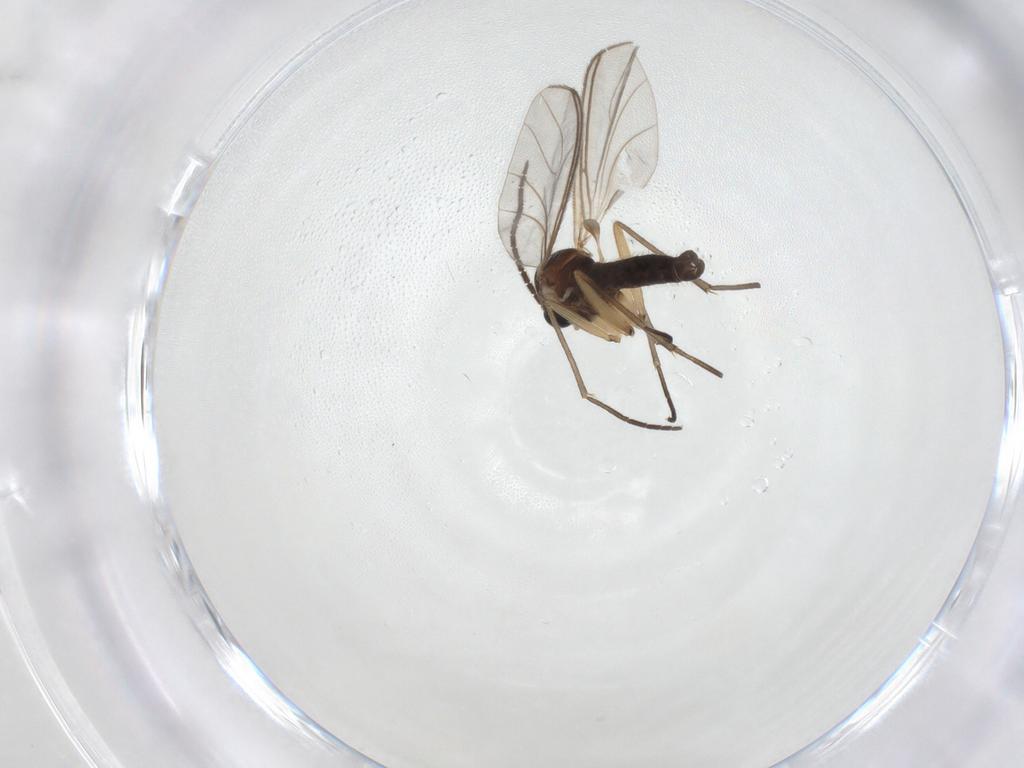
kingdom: Animalia
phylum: Arthropoda
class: Insecta
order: Diptera
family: Sciaridae
